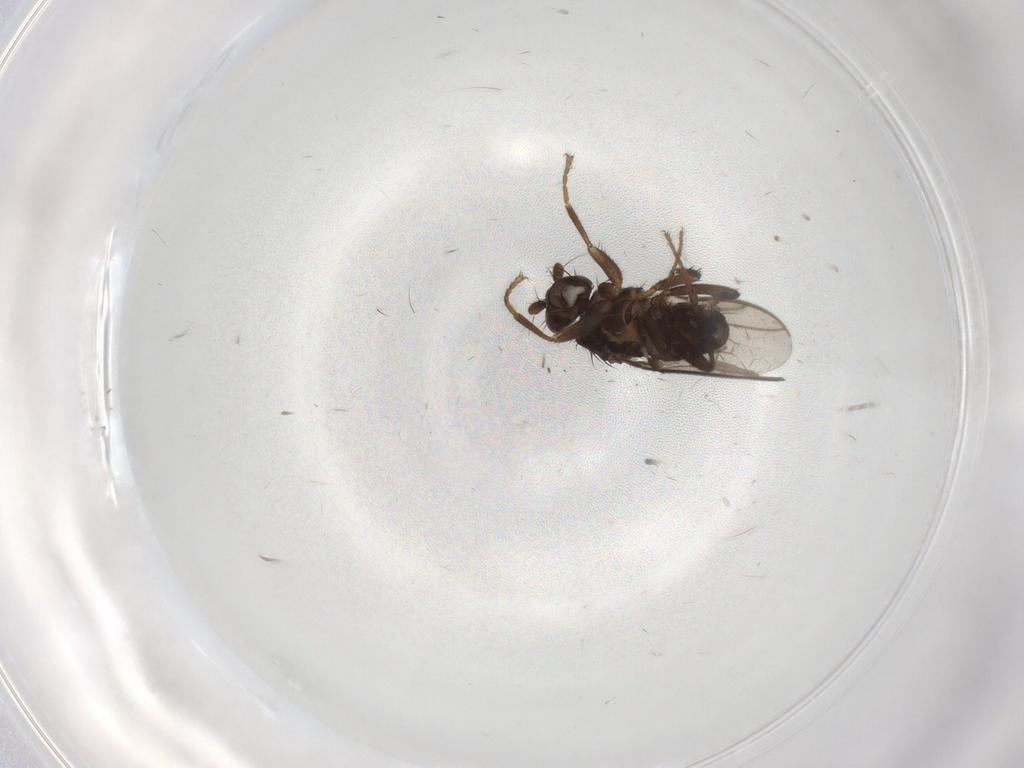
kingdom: Animalia
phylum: Arthropoda
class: Insecta
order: Diptera
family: Sphaeroceridae
